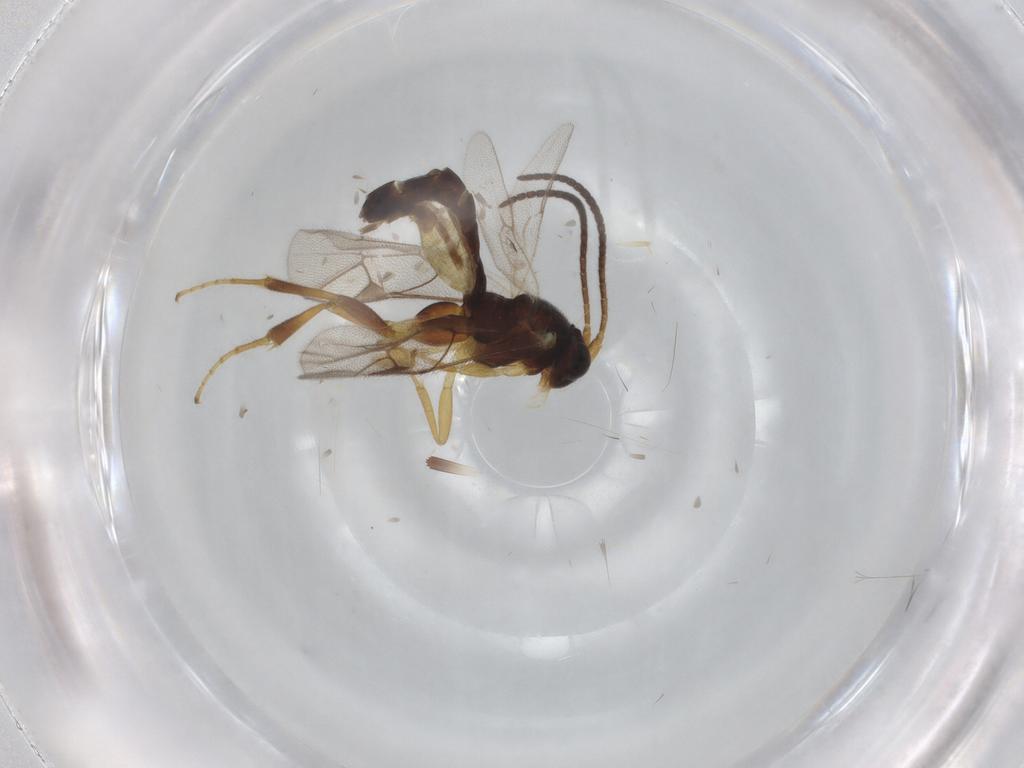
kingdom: Animalia
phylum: Arthropoda
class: Insecta
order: Hymenoptera
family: Ichneumonidae
